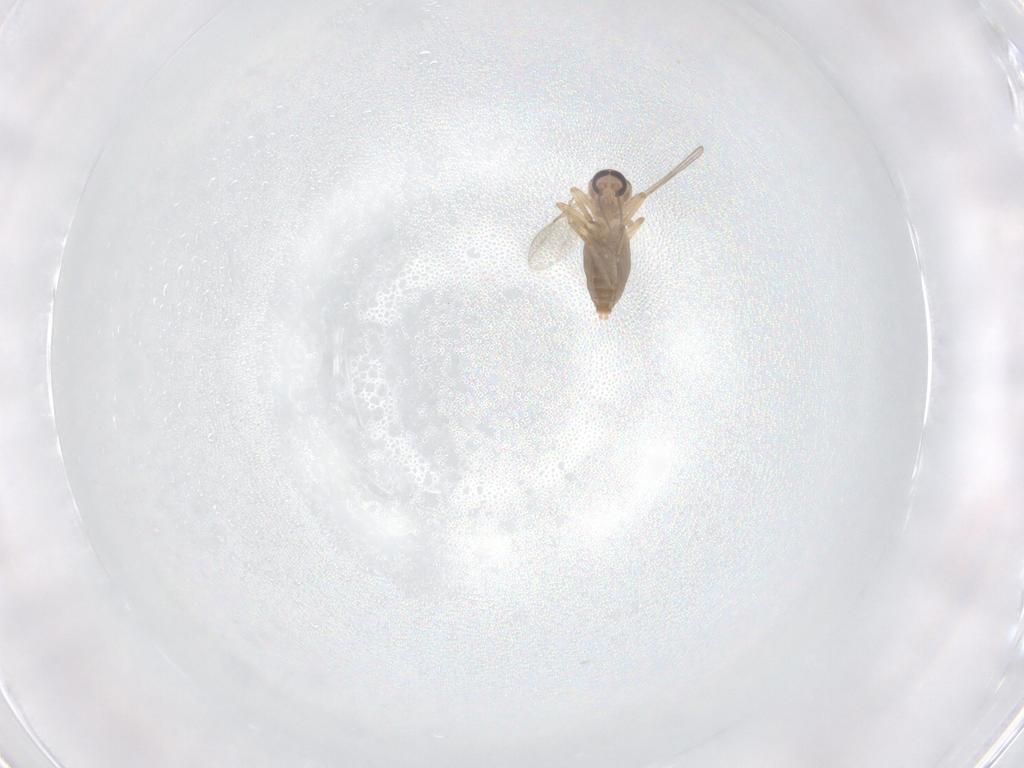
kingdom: Animalia
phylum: Arthropoda
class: Insecta
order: Diptera
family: Ceratopogonidae
